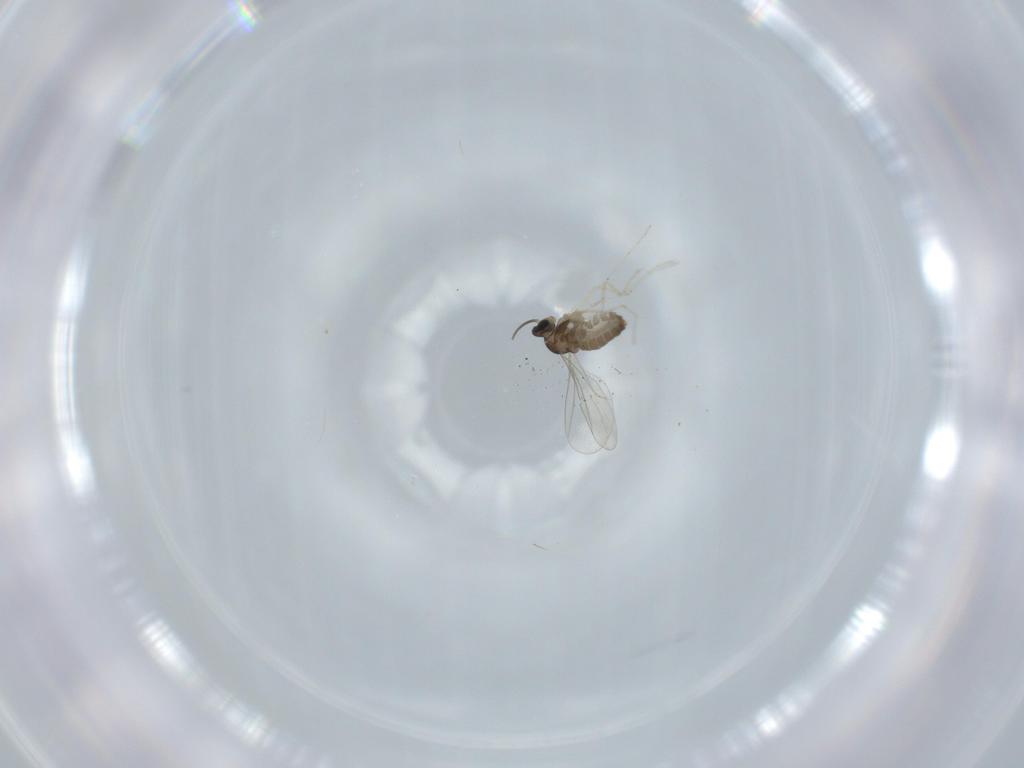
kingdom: Animalia
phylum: Arthropoda
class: Insecta
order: Diptera
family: Cecidomyiidae
